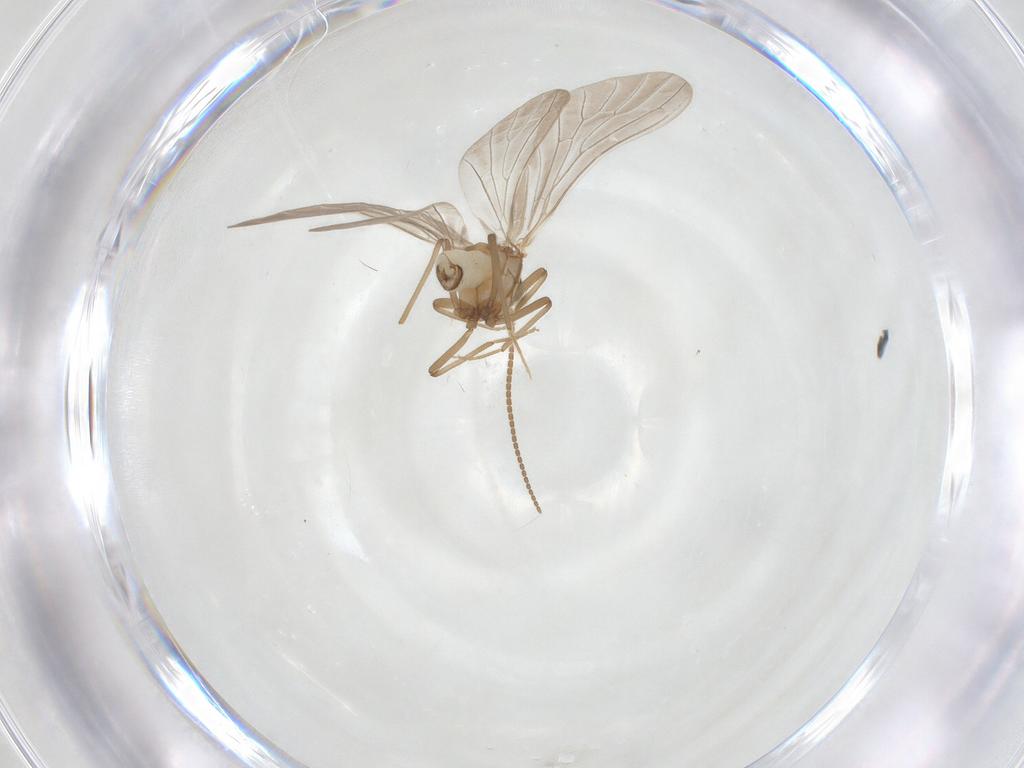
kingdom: Animalia
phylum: Arthropoda
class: Insecta
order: Neuroptera
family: Coniopterygidae
